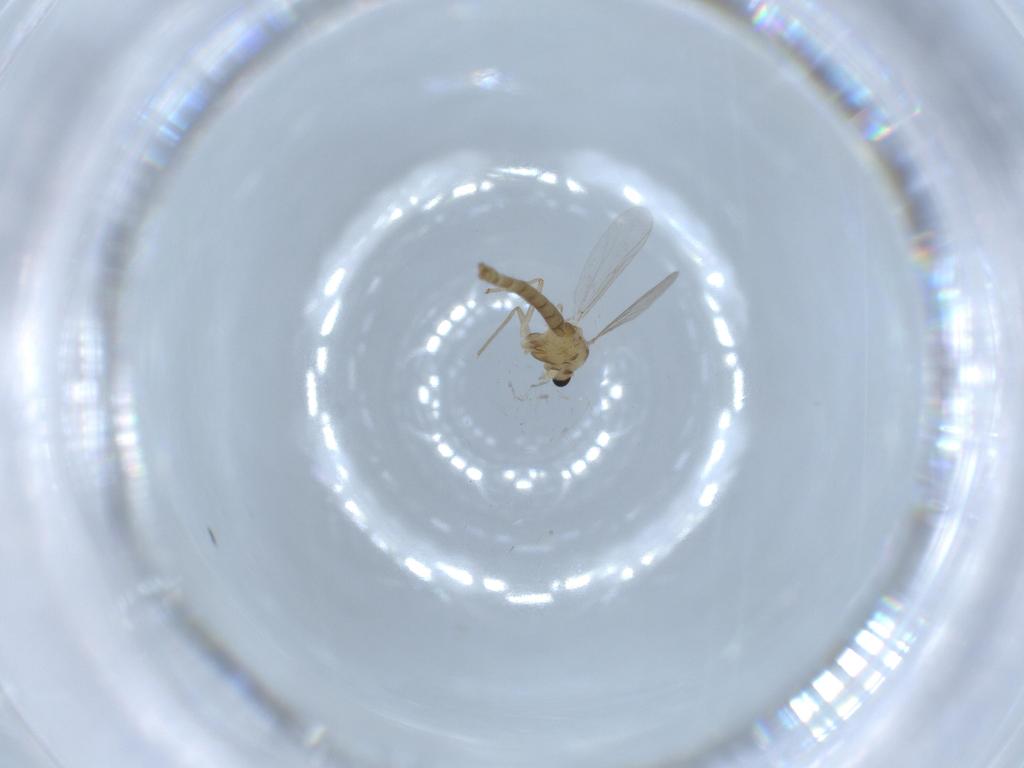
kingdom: Animalia
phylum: Arthropoda
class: Insecta
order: Diptera
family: Chironomidae
